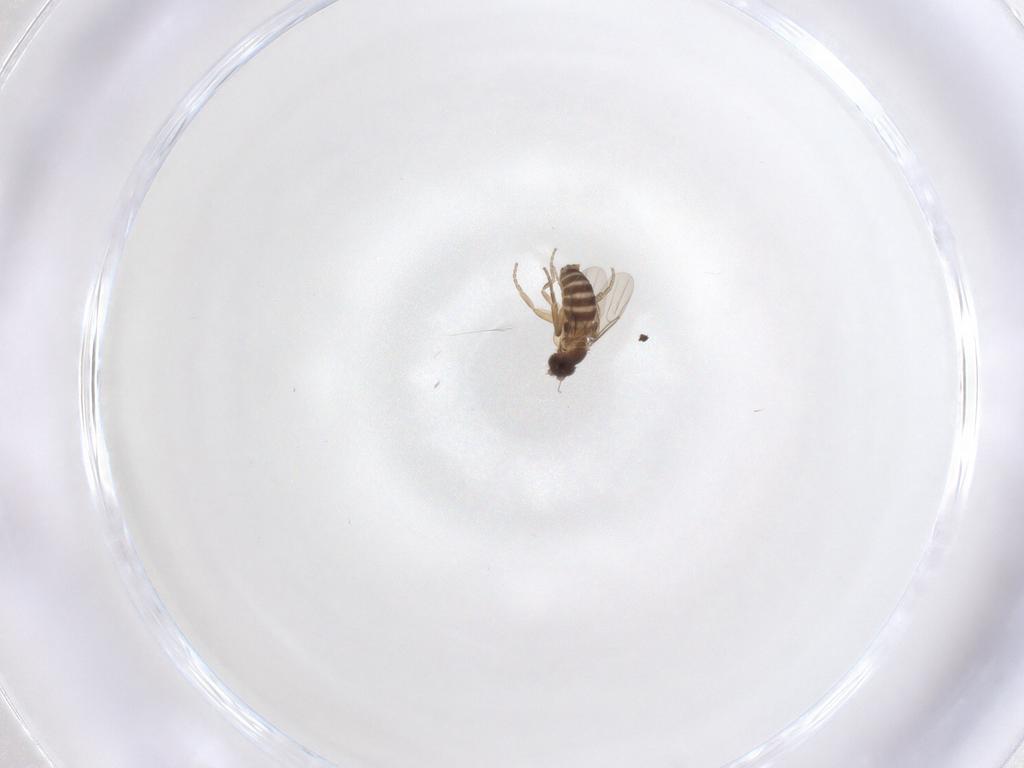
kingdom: Animalia
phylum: Arthropoda
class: Insecta
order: Diptera
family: Phoridae
